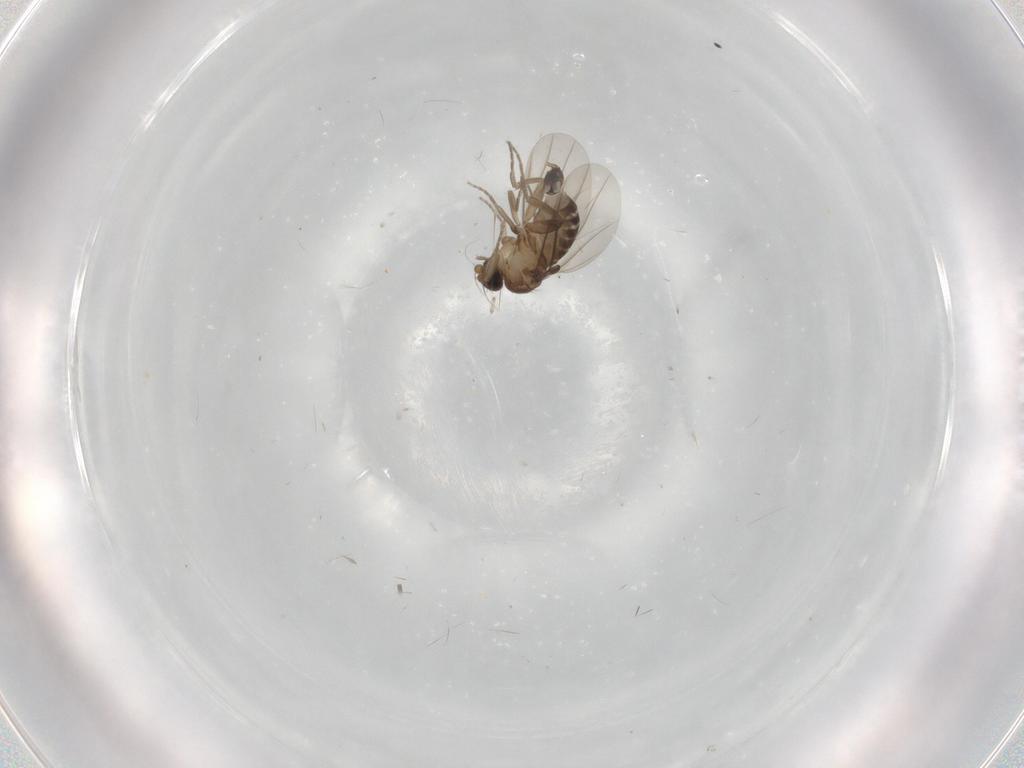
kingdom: Animalia
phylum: Arthropoda
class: Insecta
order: Diptera
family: Phoridae
